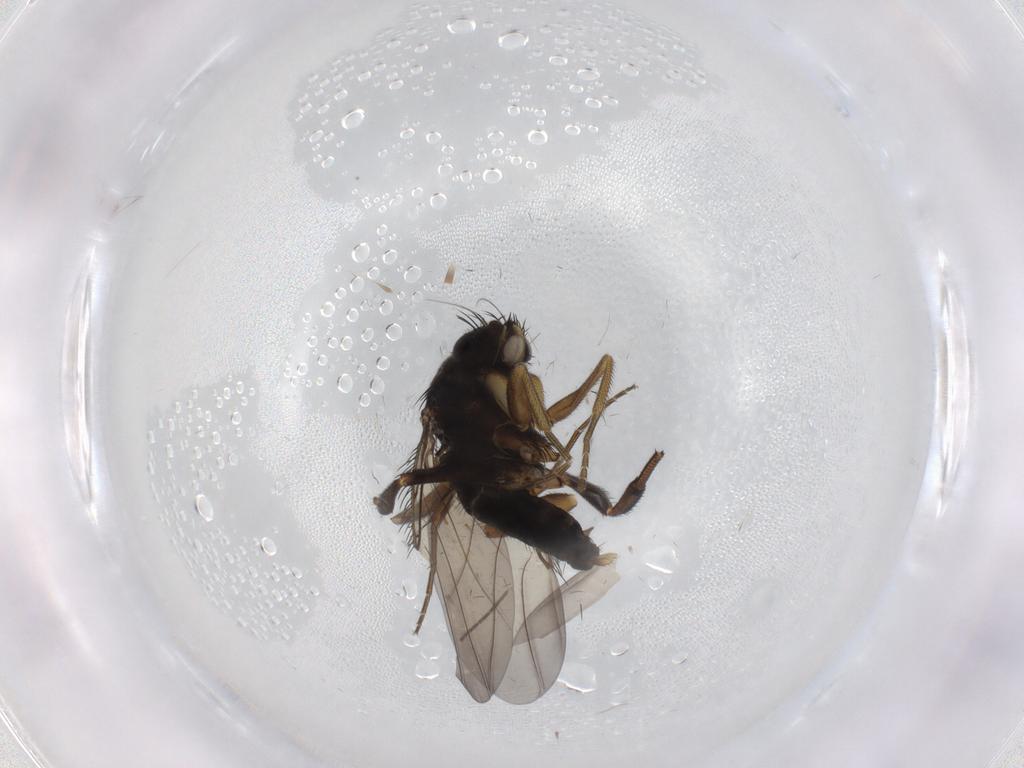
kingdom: Animalia
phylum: Arthropoda
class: Insecta
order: Diptera
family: Phoridae
